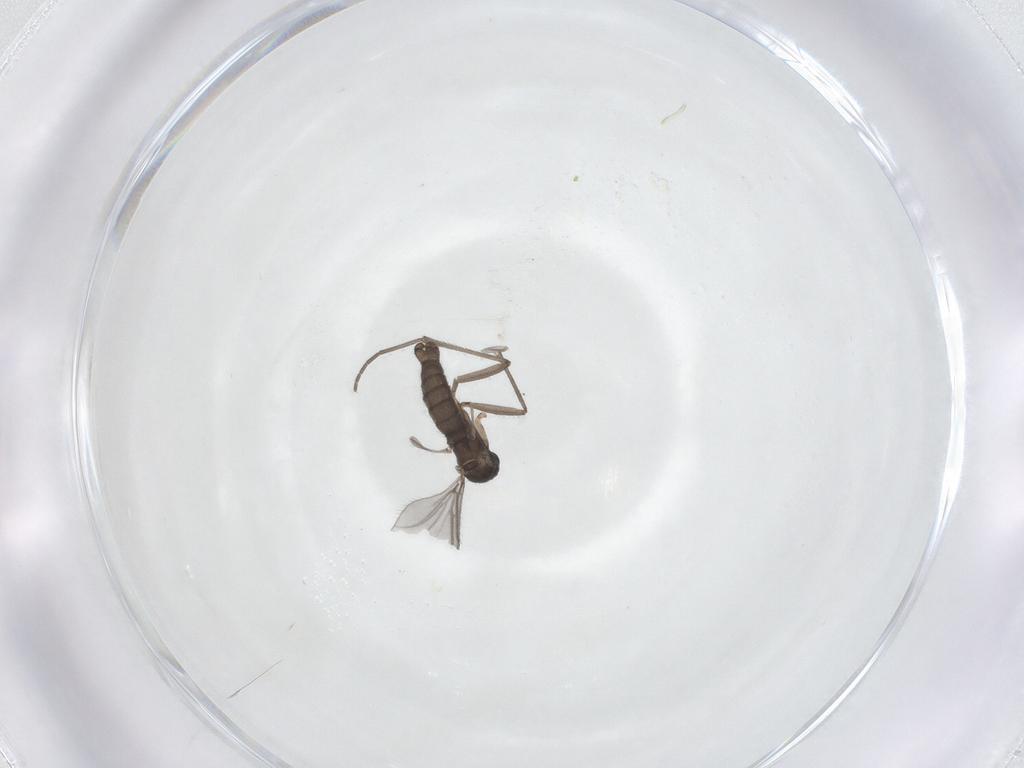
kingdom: Animalia
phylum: Arthropoda
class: Insecta
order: Diptera
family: Sciaridae
